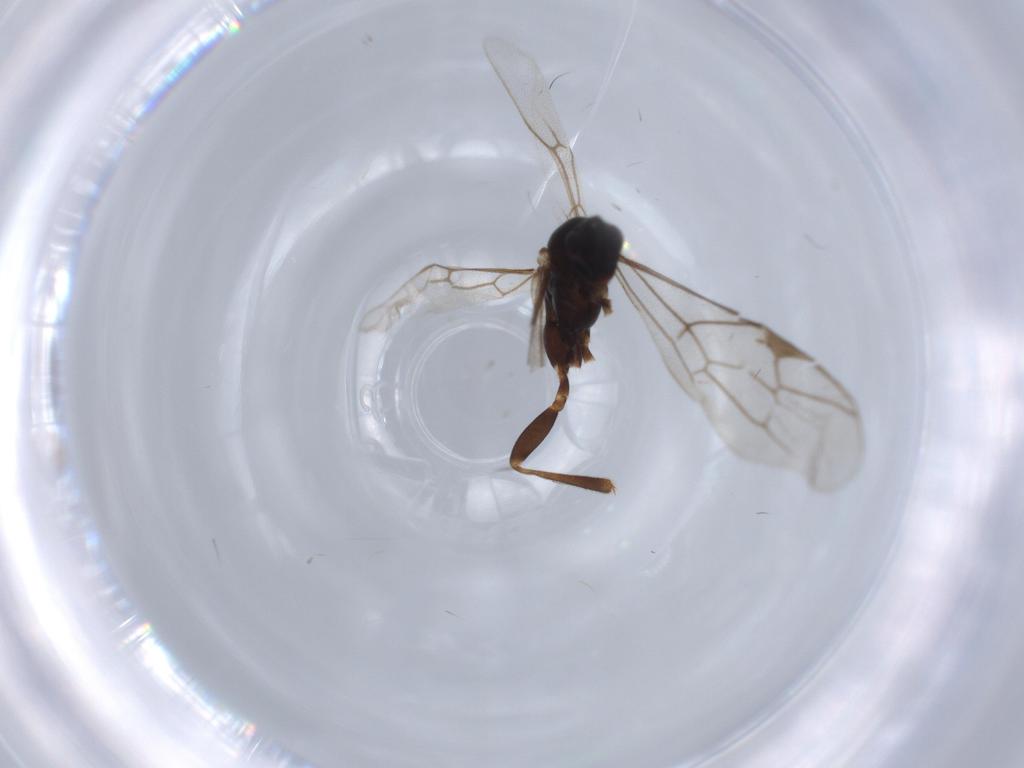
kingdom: Animalia
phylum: Arthropoda
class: Insecta
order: Hymenoptera
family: Ichneumonidae
